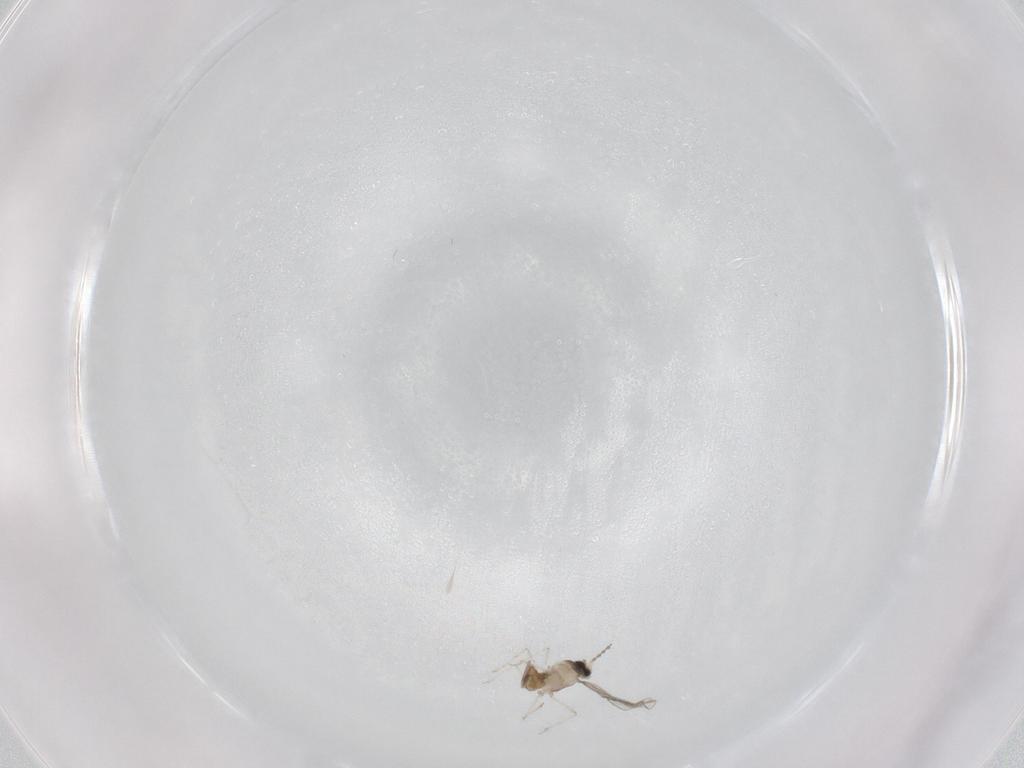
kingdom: Animalia
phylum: Arthropoda
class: Insecta
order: Diptera
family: Cecidomyiidae
